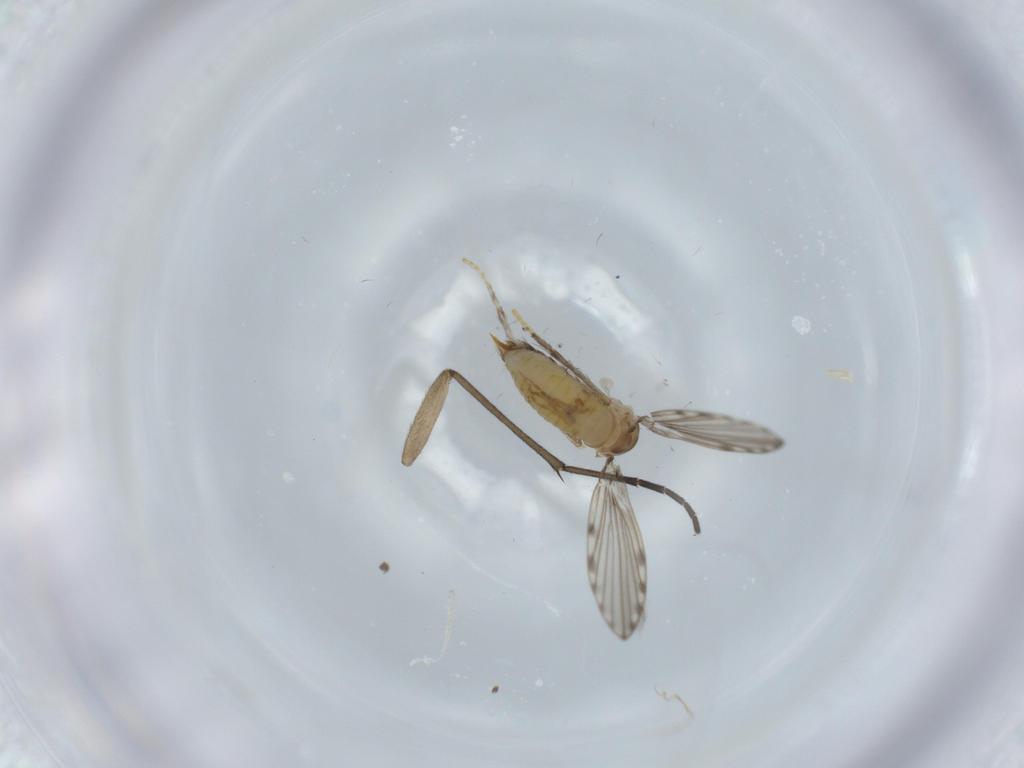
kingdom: Animalia
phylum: Arthropoda
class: Insecta
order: Diptera
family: Psychodidae
